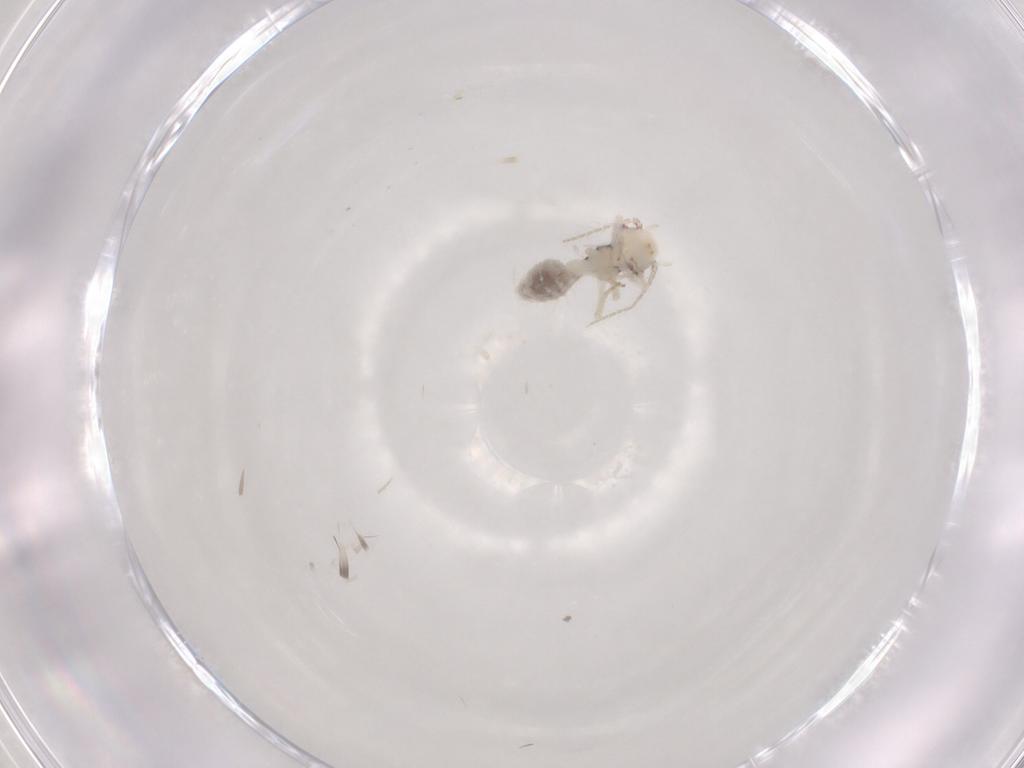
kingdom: Animalia
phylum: Arthropoda
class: Insecta
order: Psocodea
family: Philotarsidae
